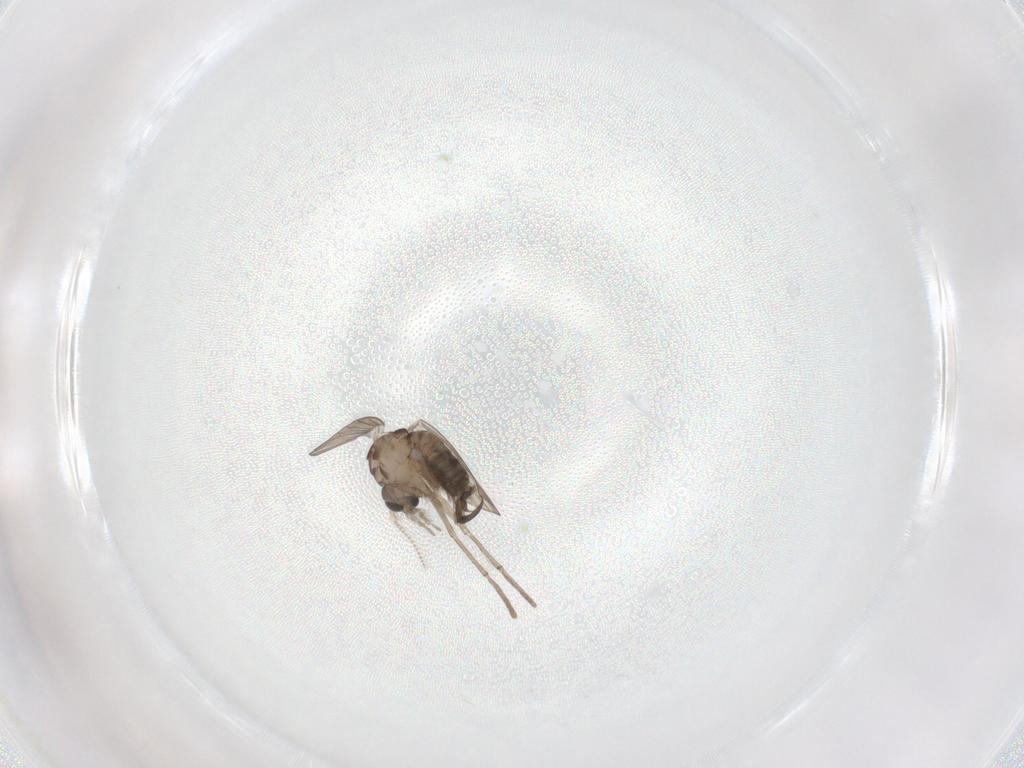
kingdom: Animalia
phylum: Arthropoda
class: Insecta
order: Diptera
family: Psychodidae
